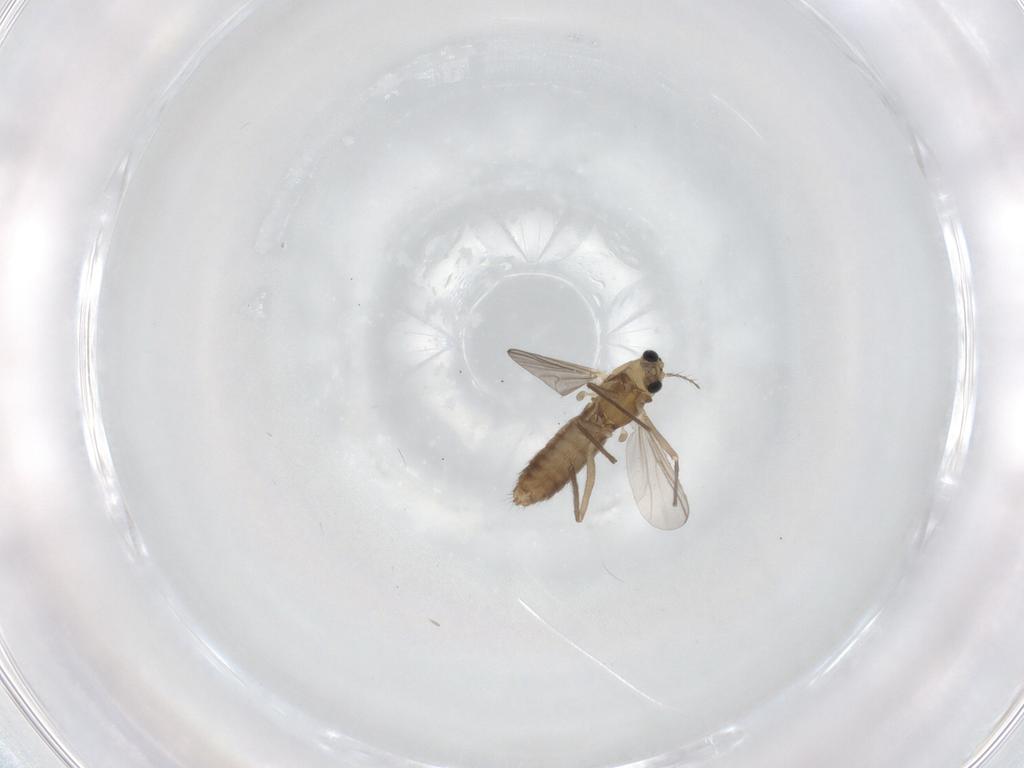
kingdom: Animalia
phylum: Arthropoda
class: Insecta
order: Diptera
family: Chironomidae
